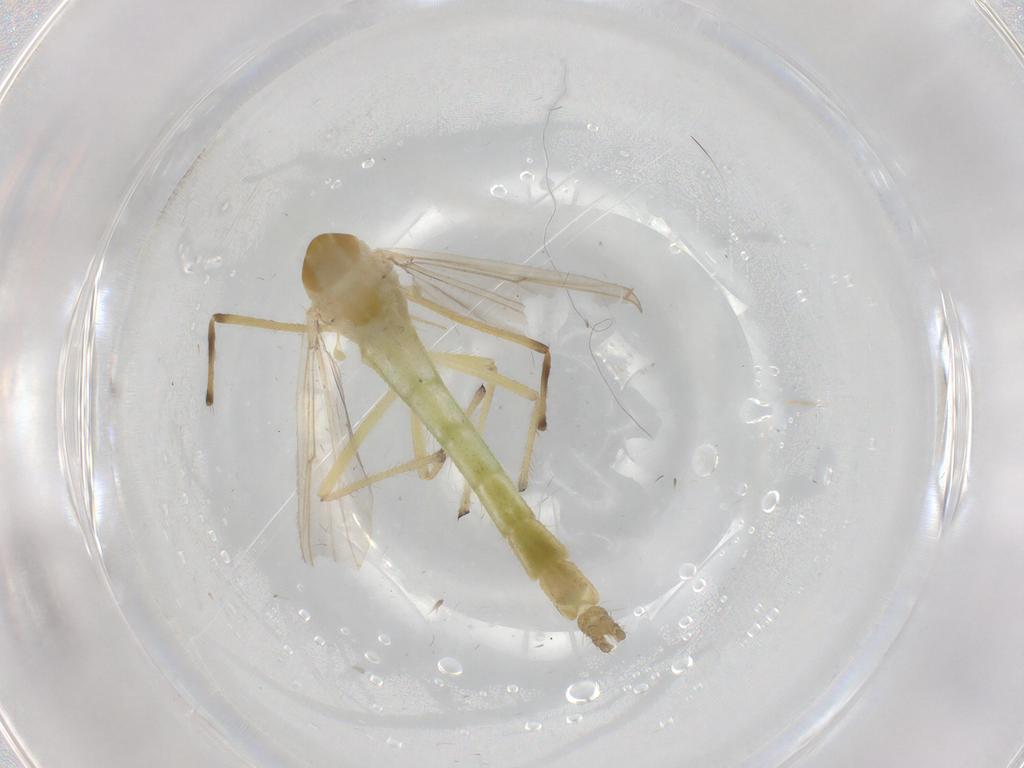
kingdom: Animalia
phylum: Arthropoda
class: Insecta
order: Diptera
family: Chironomidae
